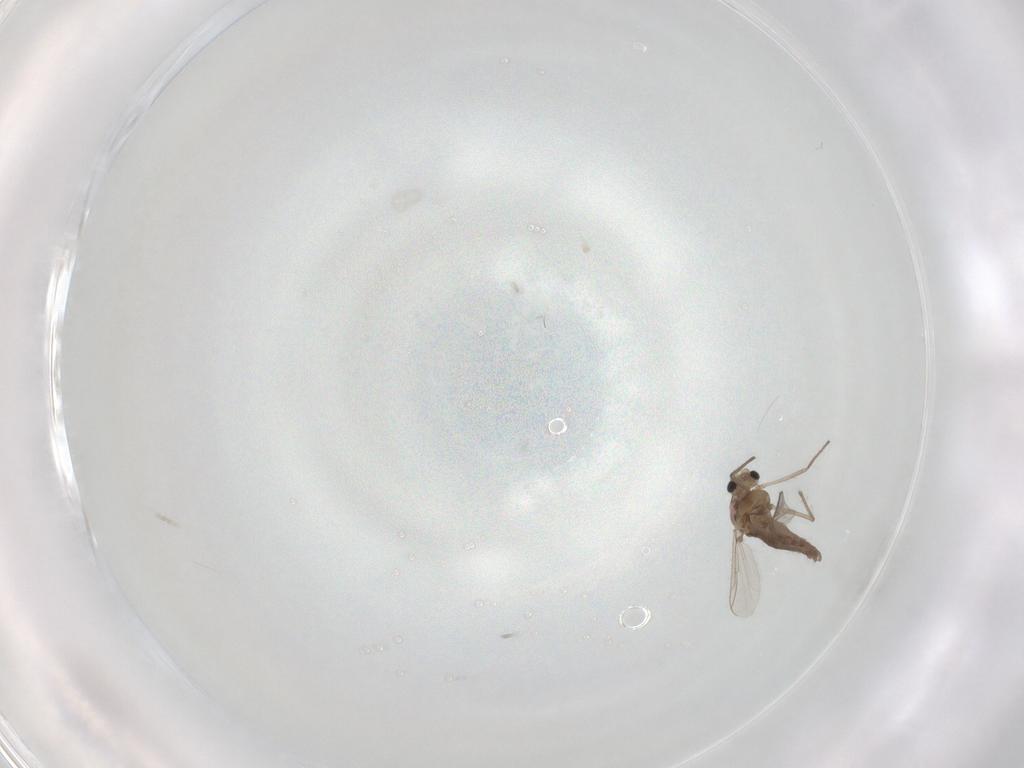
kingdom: Animalia
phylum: Arthropoda
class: Insecta
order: Diptera
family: Chironomidae
